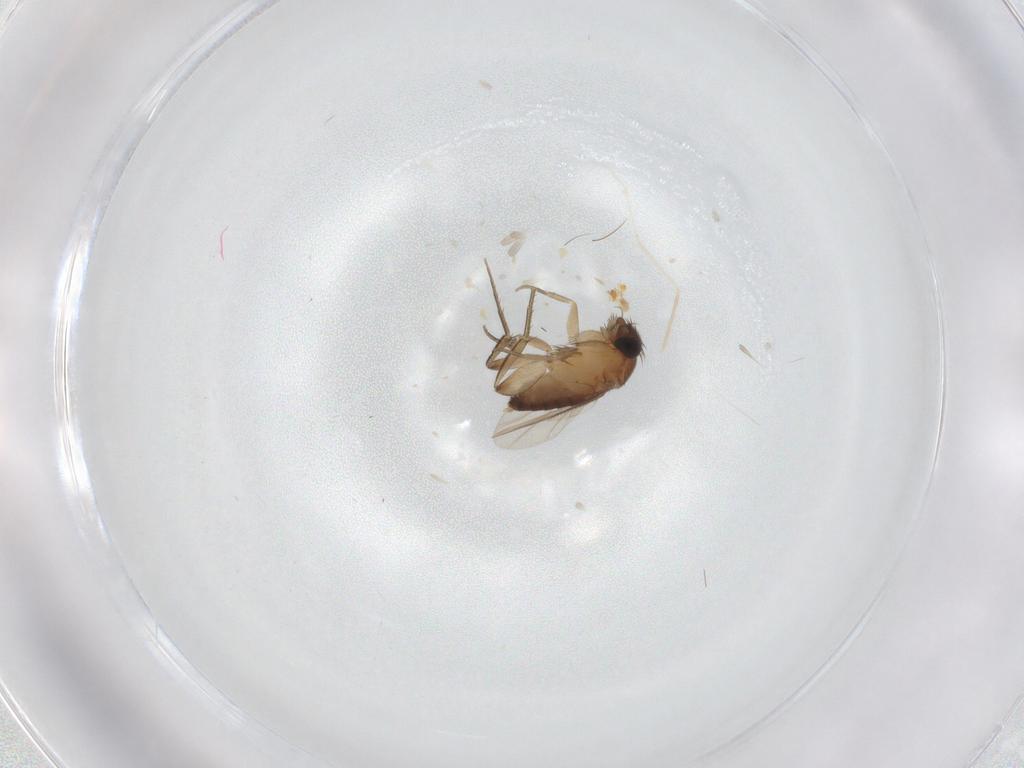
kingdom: Animalia
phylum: Arthropoda
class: Insecta
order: Diptera
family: Phoridae
